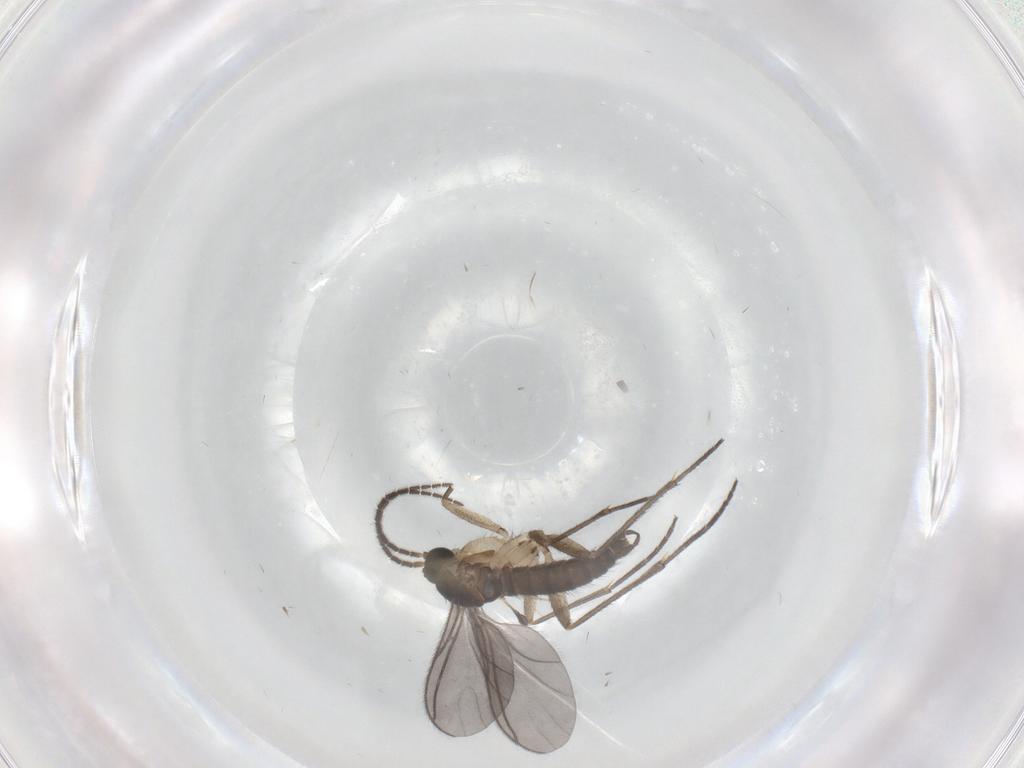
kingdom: Animalia
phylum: Arthropoda
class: Insecta
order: Diptera
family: Sciaridae
